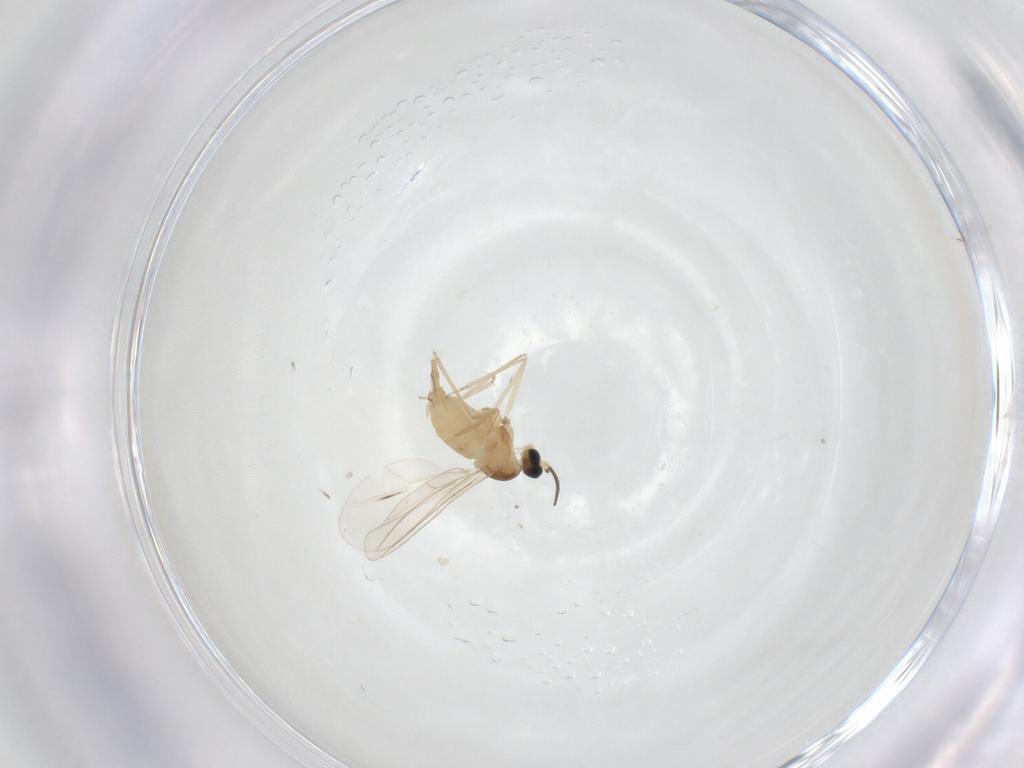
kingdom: Animalia
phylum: Arthropoda
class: Insecta
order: Diptera
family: Cecidomyiidae
